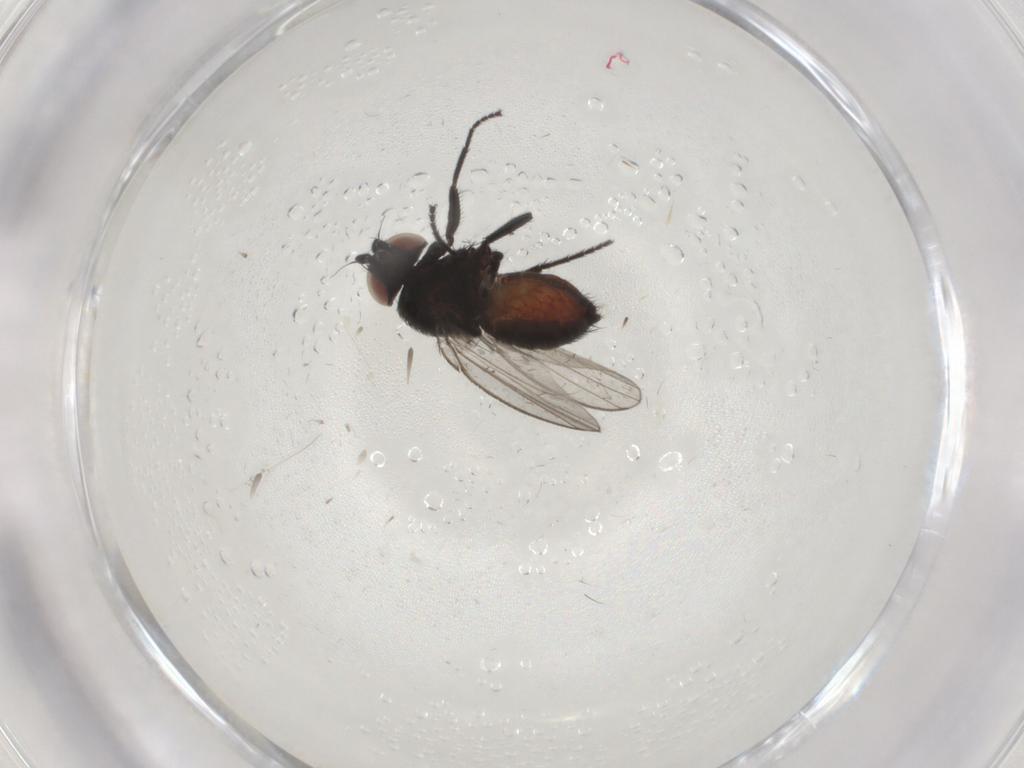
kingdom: Animalia
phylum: Arthropoda
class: Insecta
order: Diptera
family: Milichiidae
